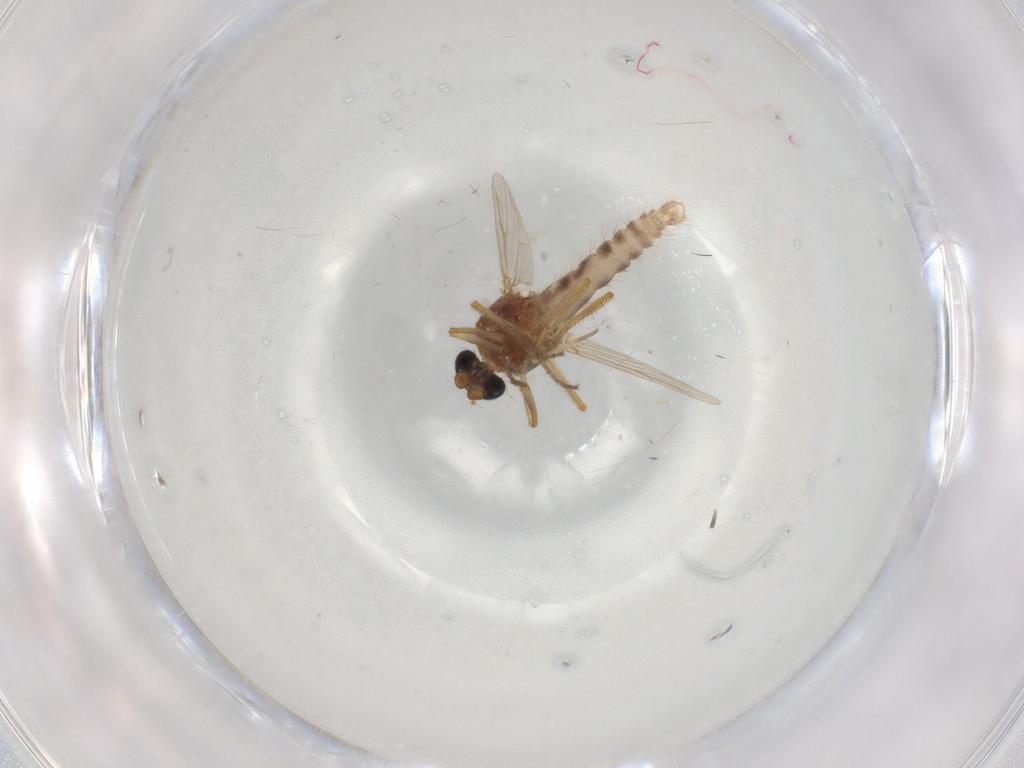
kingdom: Animalia
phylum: Arthropoda
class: Insecta
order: Diptera
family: Ceratopogonidae
